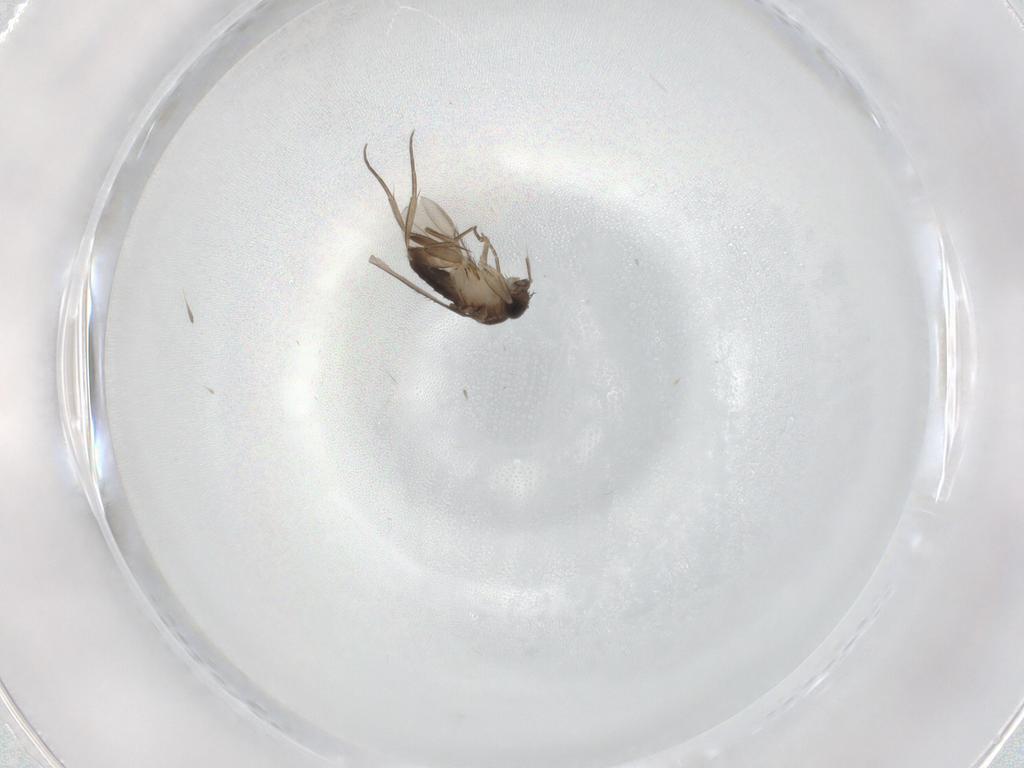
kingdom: Animalia
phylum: Arthropoda
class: Insecta
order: Diptera
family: Phoridae
